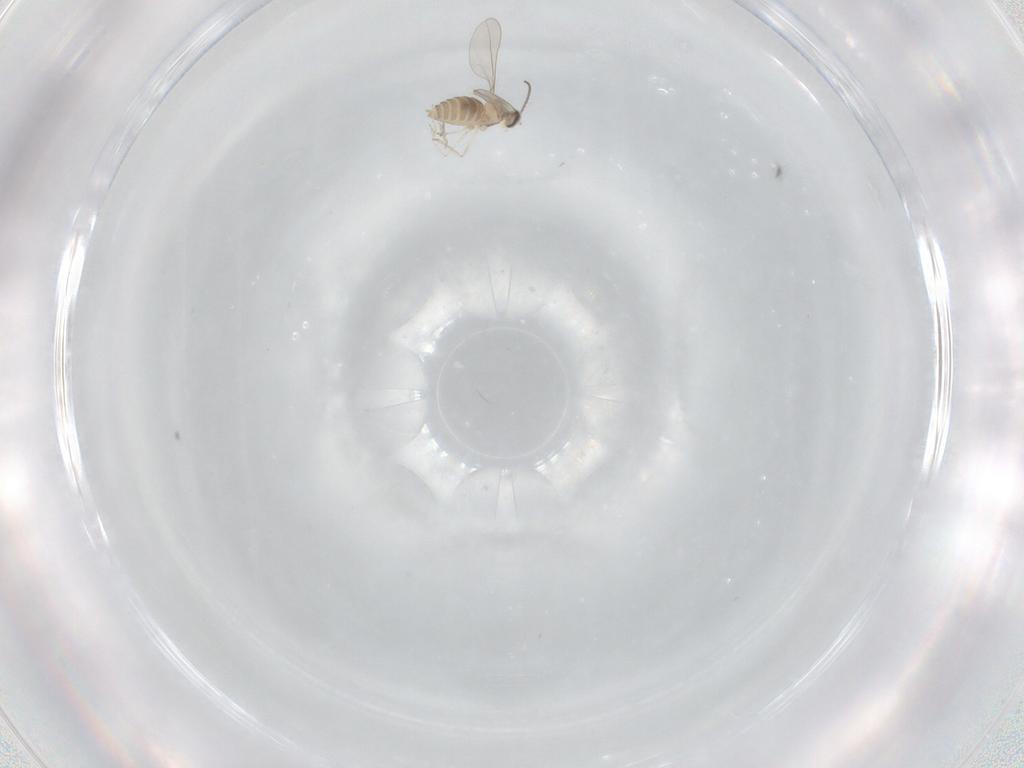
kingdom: Animalia
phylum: Arthropoda
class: Insecta
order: Diptera
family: Cecidomyiidae
